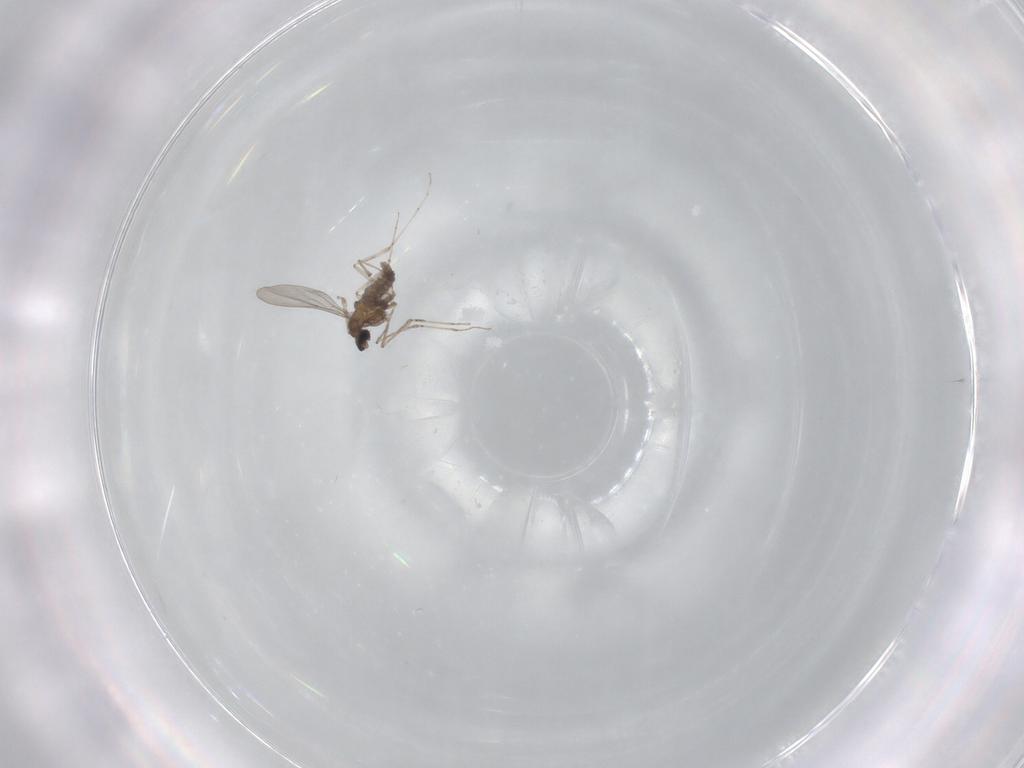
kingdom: Animalia
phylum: Arthropoda
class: Insecta
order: Diptera
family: Cecidomyiidae
